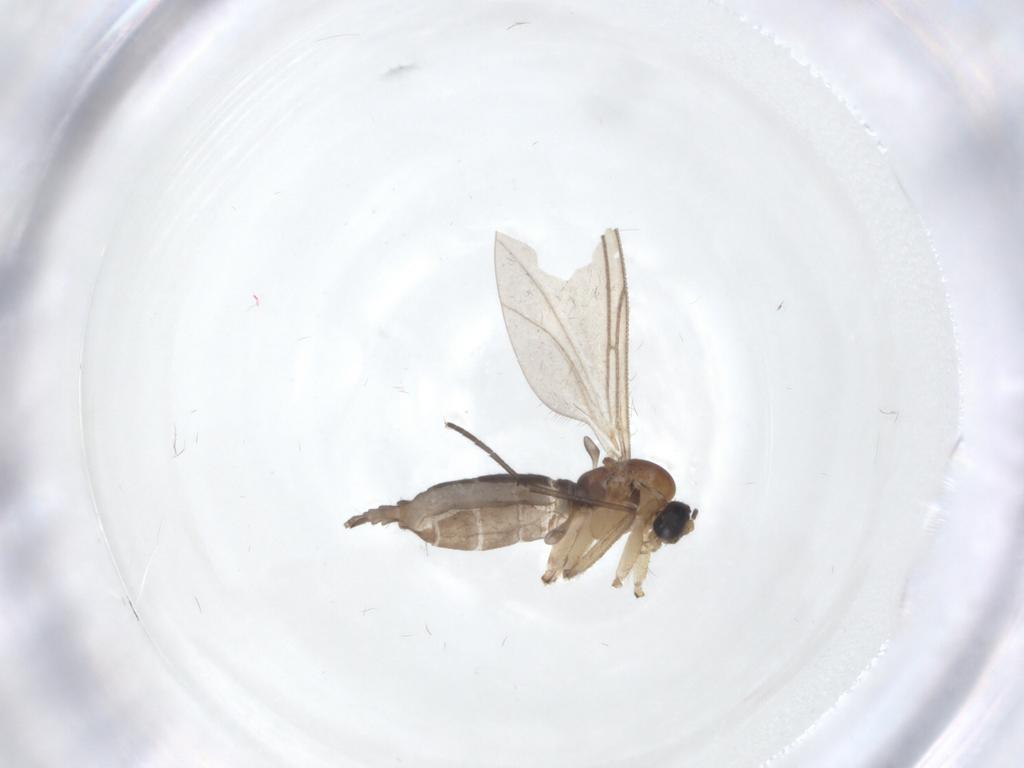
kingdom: Animalia
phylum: Arthropoda
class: Insecta
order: Diptera
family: Sciaridae
